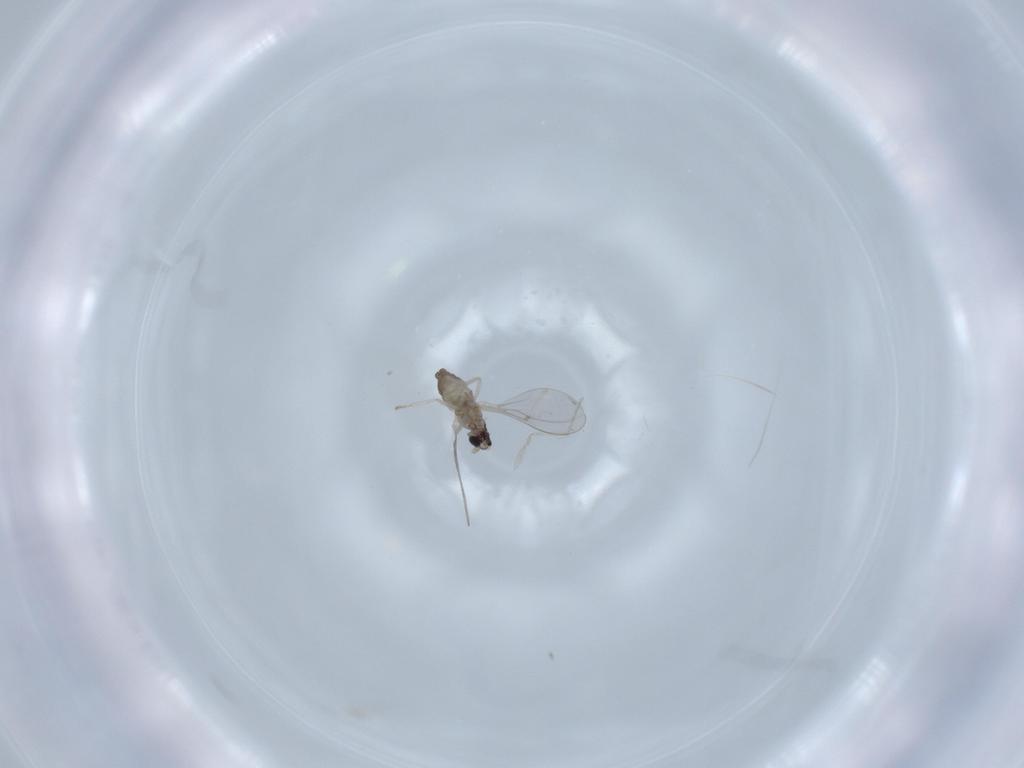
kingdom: Animalia
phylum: Arthropoda
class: Insecta
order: Diptera
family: Cecidomyiidae
